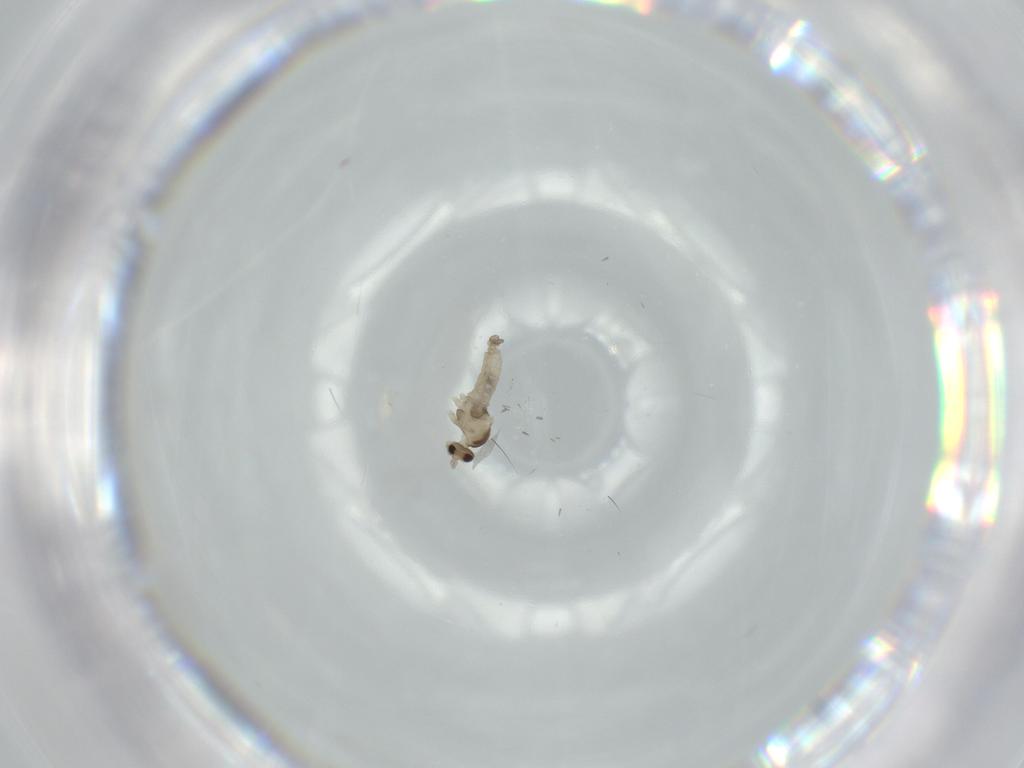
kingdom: Animalia
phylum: Arthropoda
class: Insecta
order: Diptera
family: Cecidomyiidae
